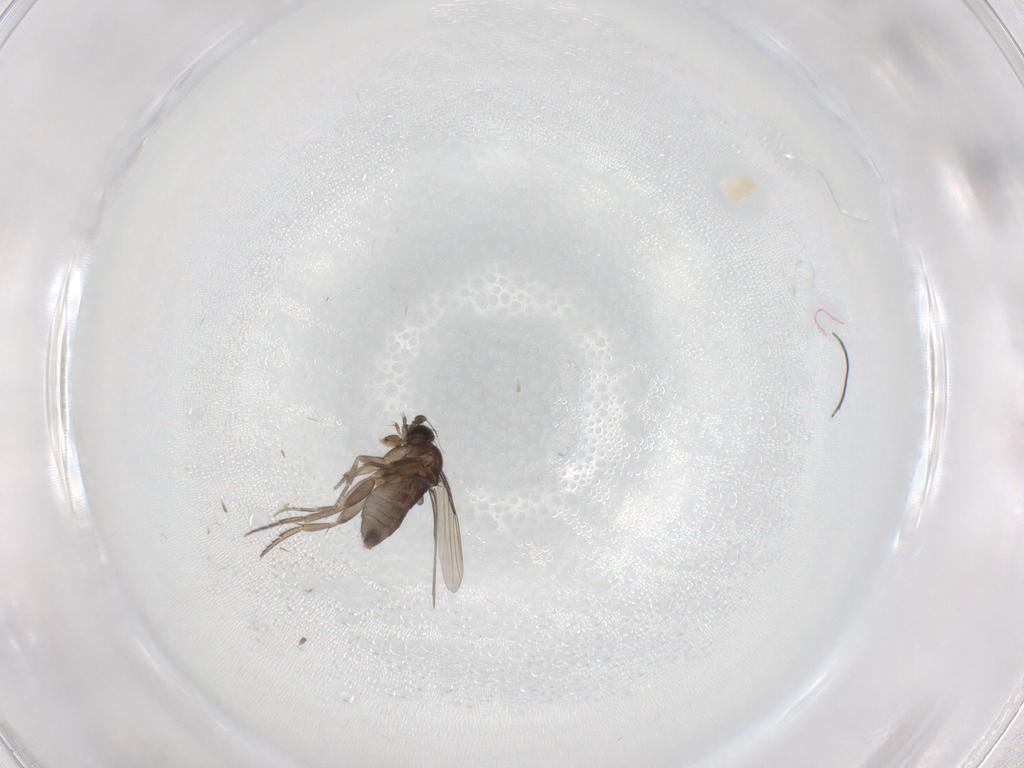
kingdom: Animalia
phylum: Arthropoda
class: Insecta
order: Diptera
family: Phoridae
